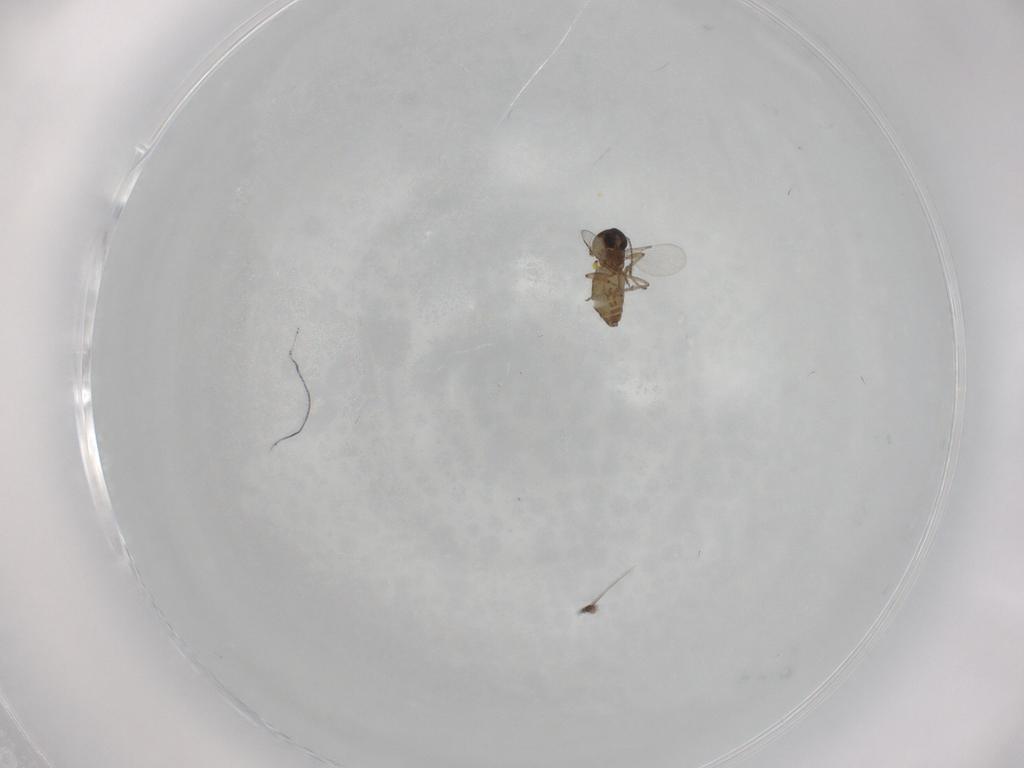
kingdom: Animalia
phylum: Arthropoda
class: Insecta
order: Diptera
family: Ceratopogonidae
